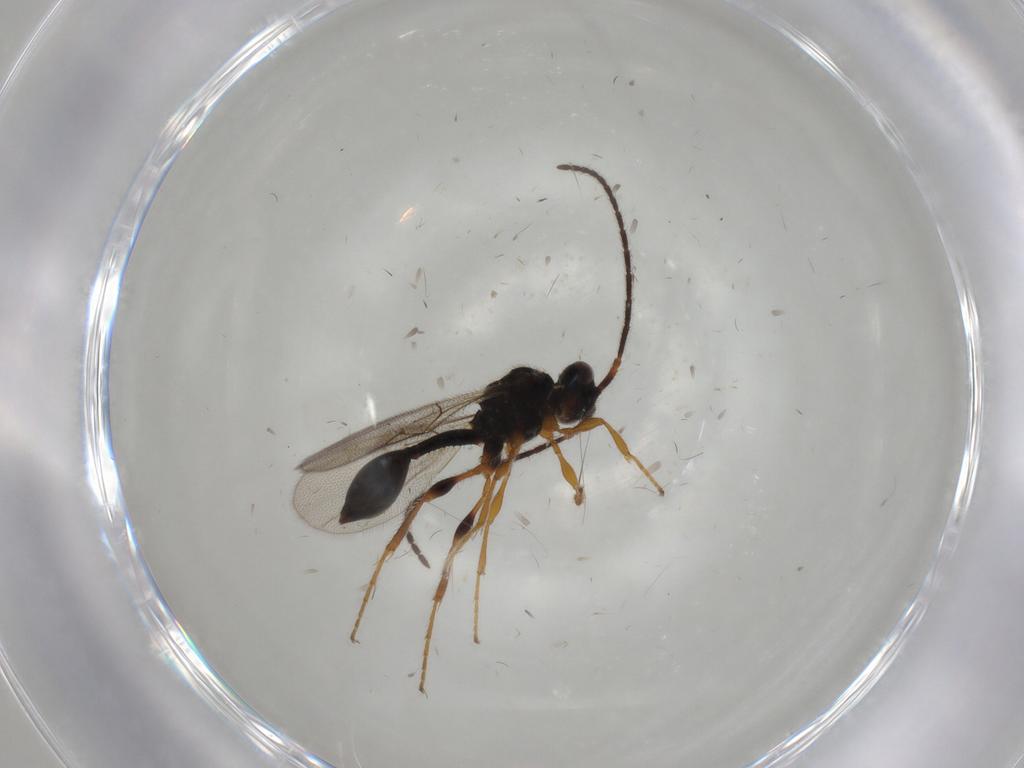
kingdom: Animalia
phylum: Arthropoda
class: Insecta
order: Hymenoptera
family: Diapriidae
